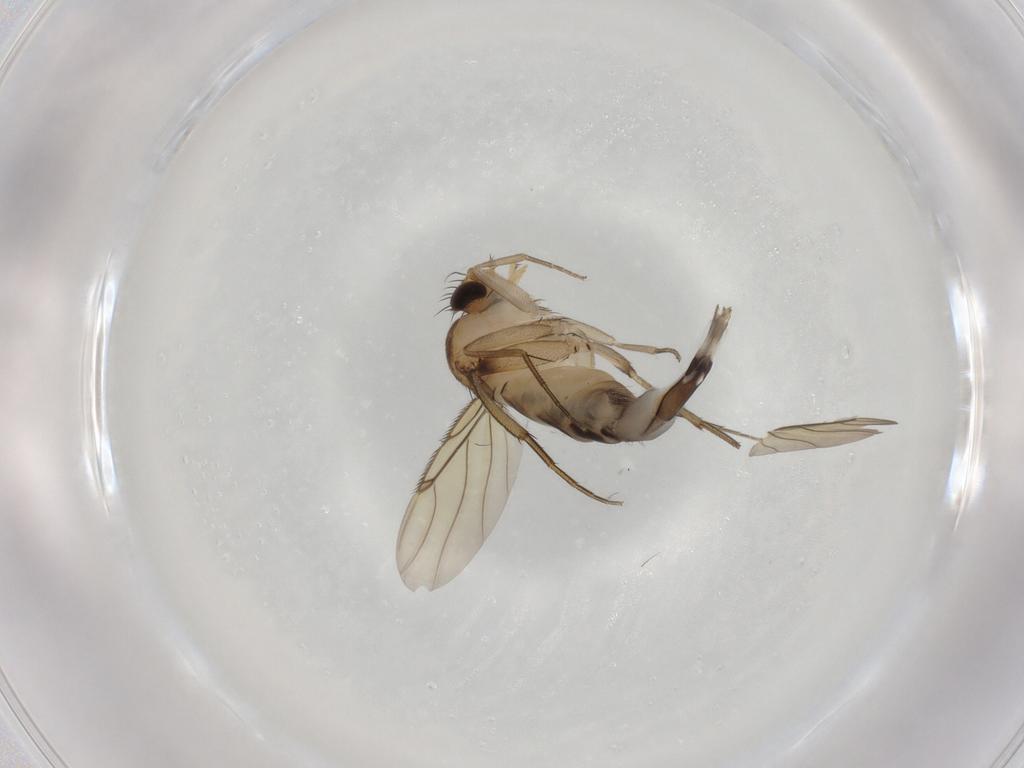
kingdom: Animalia
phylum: Arthropoda
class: Insecta
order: Diptera
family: Phoridae
